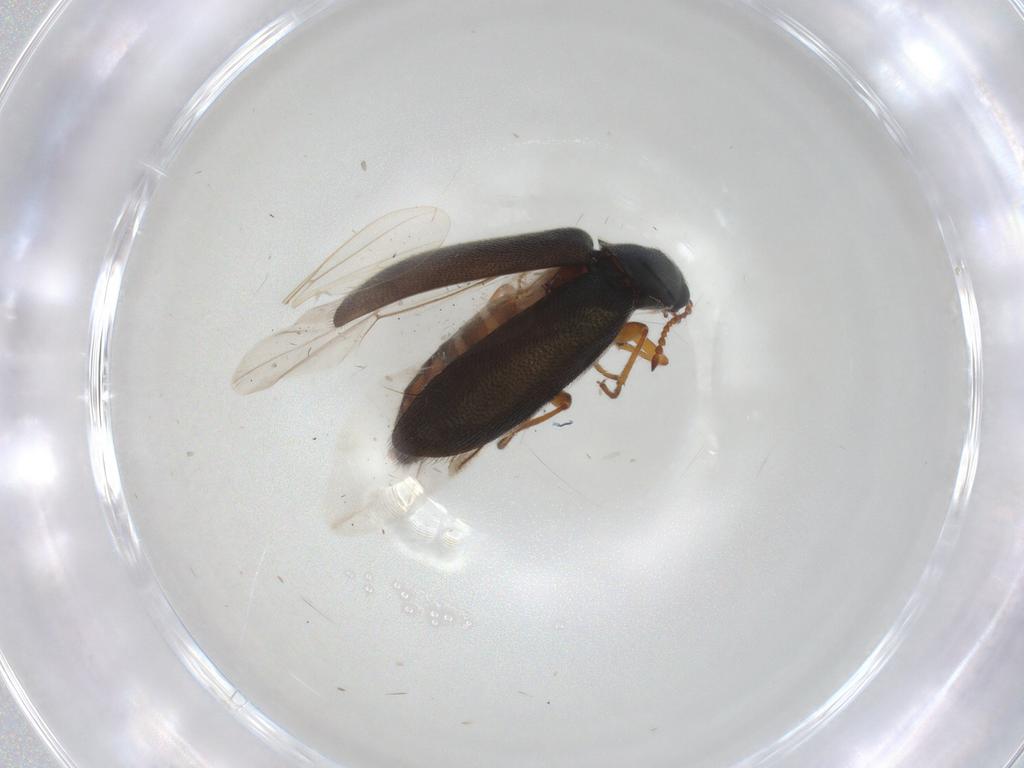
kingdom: Animalia
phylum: Arthropoda
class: Insecta
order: Coleoptera
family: Melyridae
